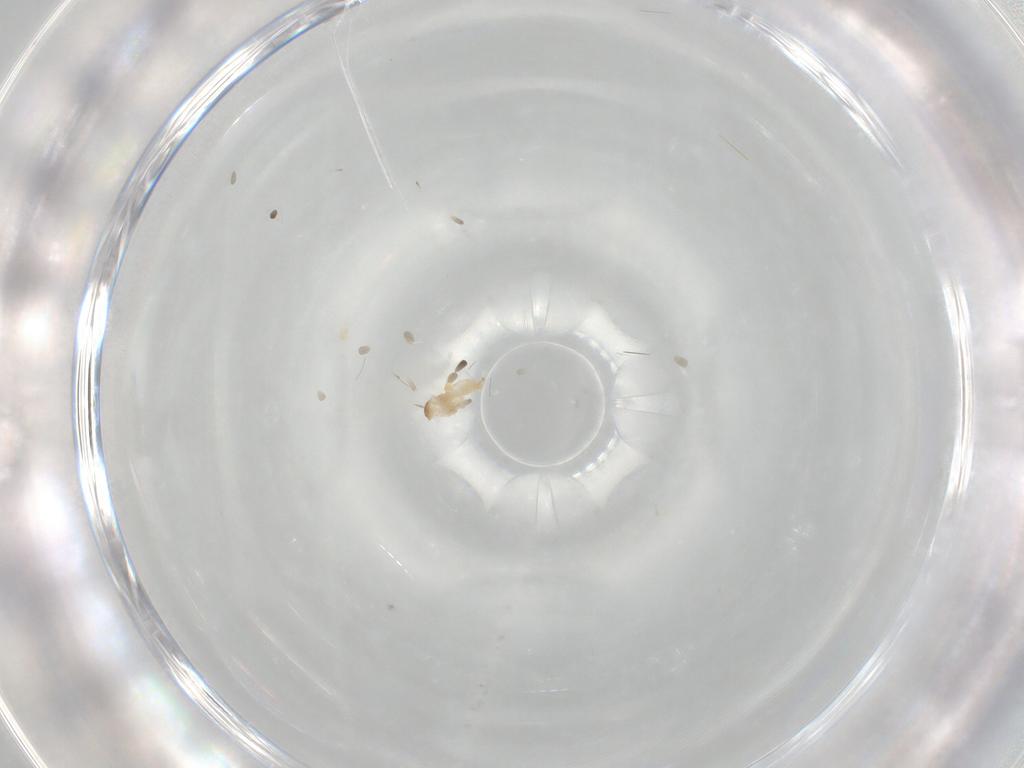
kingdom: Animalia
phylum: Arthropoda
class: Insecta
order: Diptera
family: Cecidomyiidae
